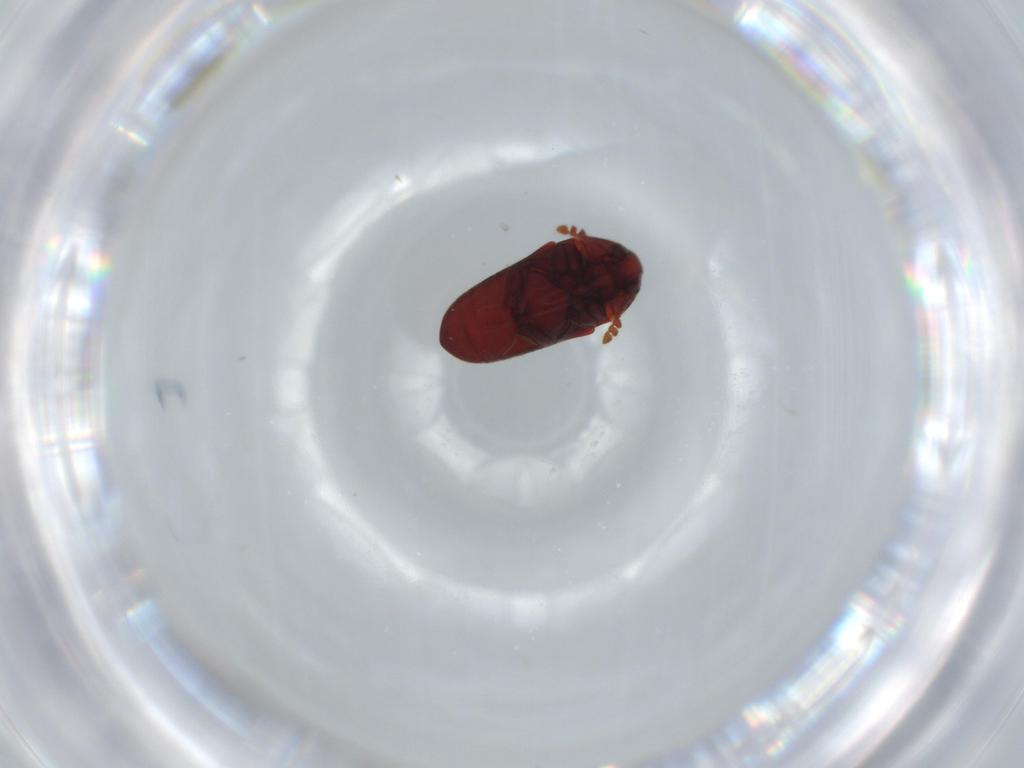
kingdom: Animalia
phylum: Arthropoda
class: Insecta
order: Coleoptera
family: Throscidae
